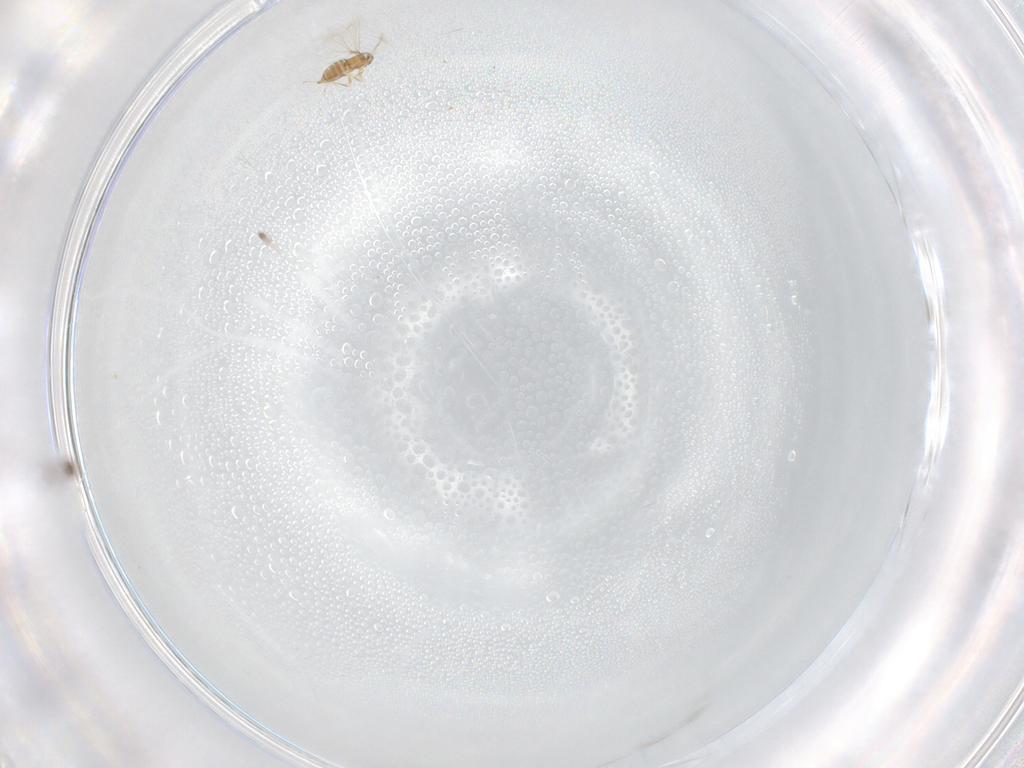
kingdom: Animalia
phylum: Arthropoda
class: Insecta
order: Hymenoptera
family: Mymaridae
